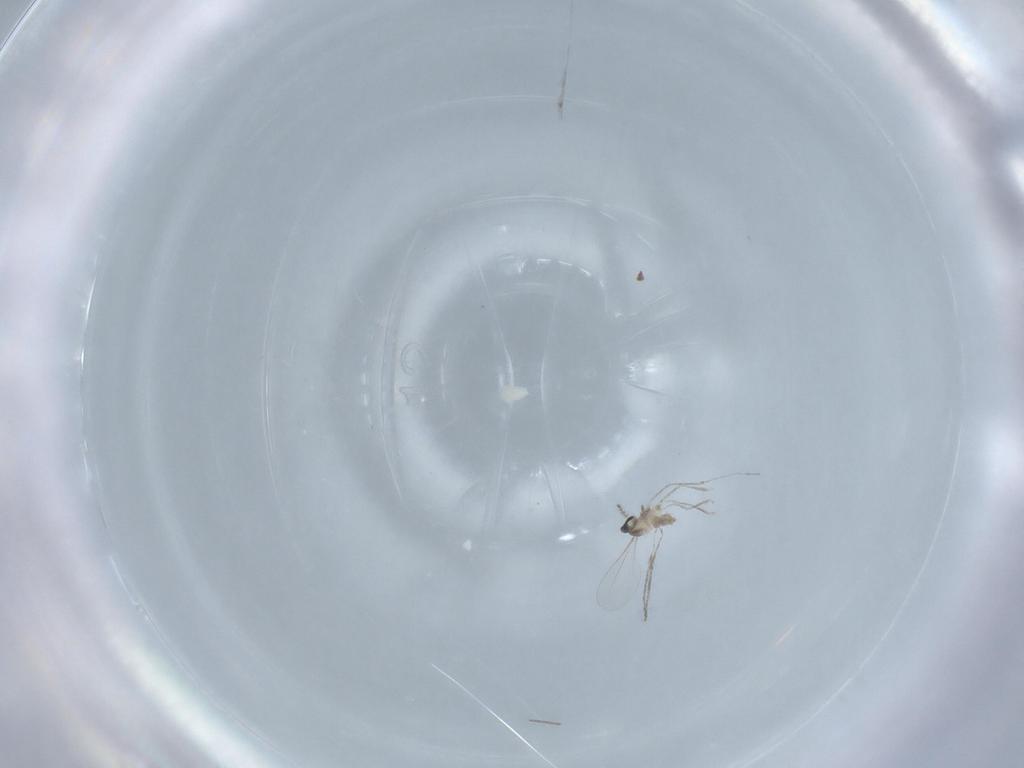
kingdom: Animalia
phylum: Arthropoda
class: Insecta
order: Diptera
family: Cecidomyiidae
